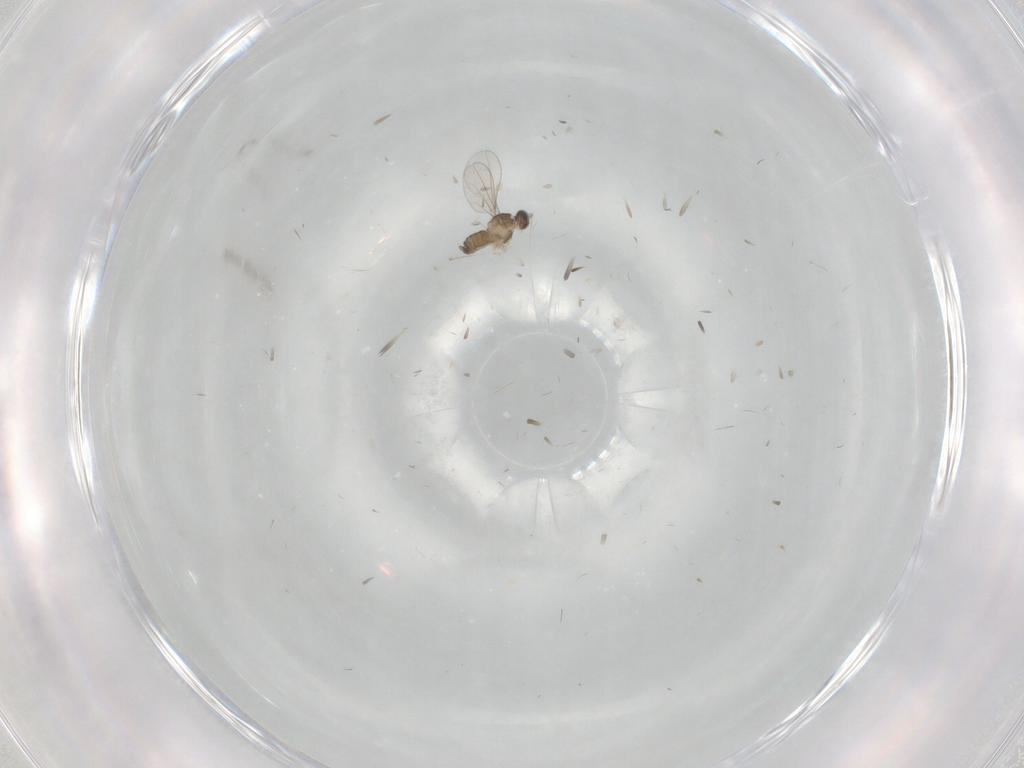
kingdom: Animalia
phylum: Arthropoda
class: Insecta
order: Diptera
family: Cecidomyiidae
